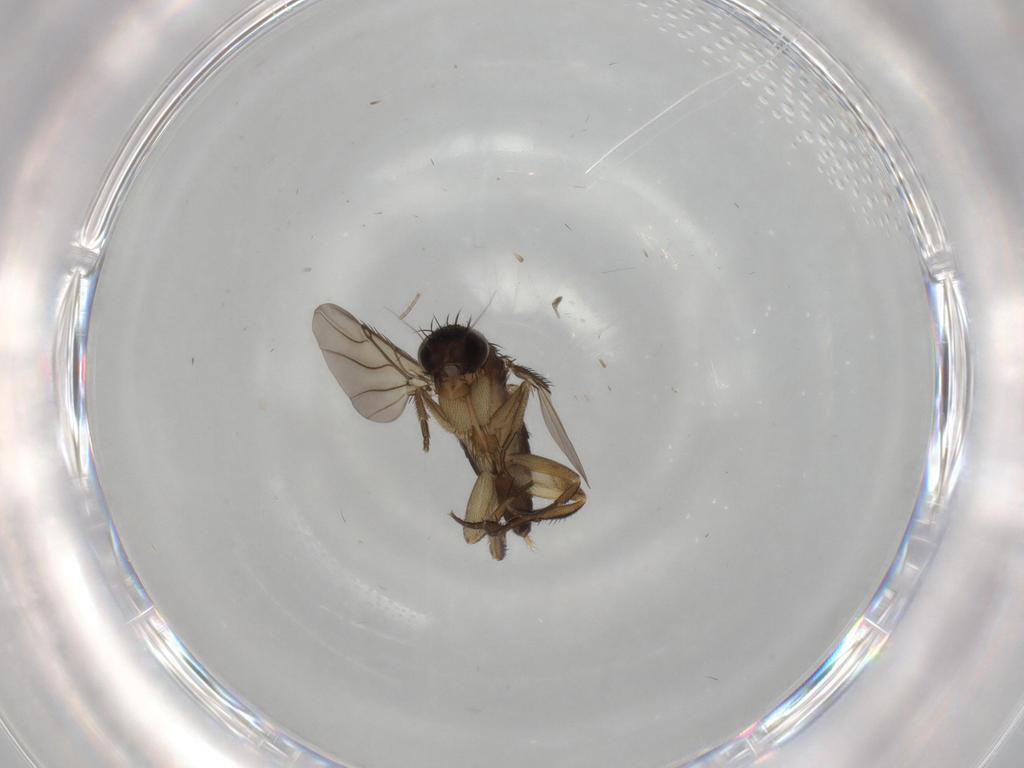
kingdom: Animalia
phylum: Arthropoda
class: Insecta
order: Diptera
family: Phoridae
